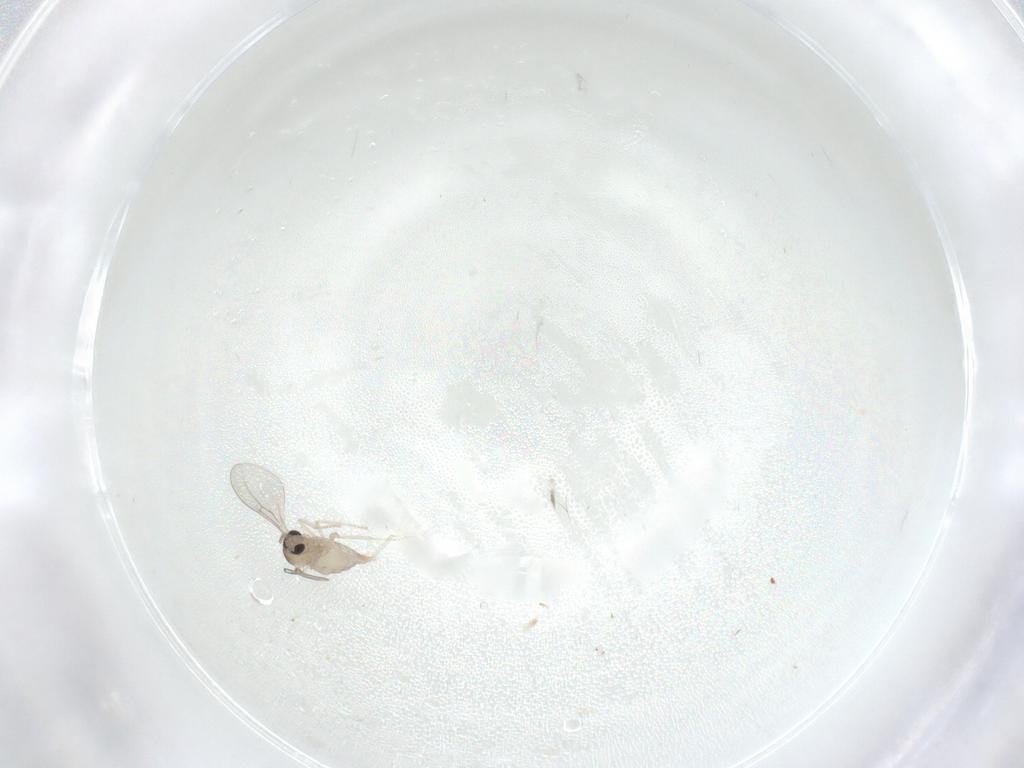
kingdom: Animalia
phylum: Arthropoda
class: Insecta
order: Diptera
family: Cecidomyiidae
